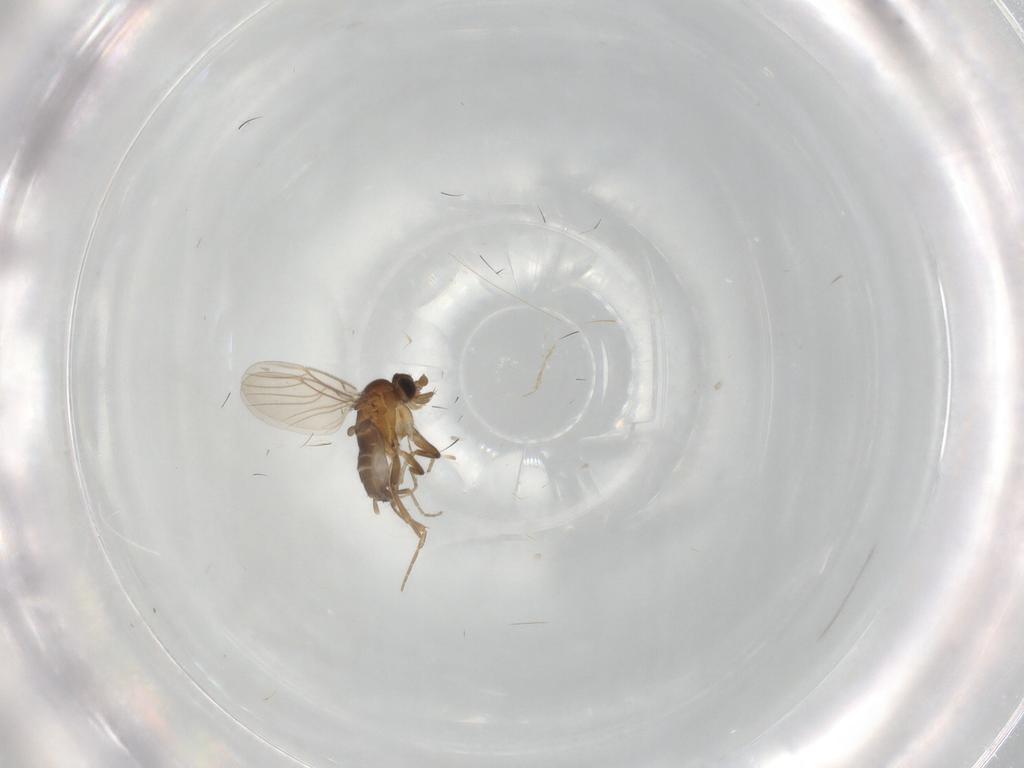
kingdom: Animalia
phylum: Arthropoda
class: Insecta
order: Diptera
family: Phoridae
